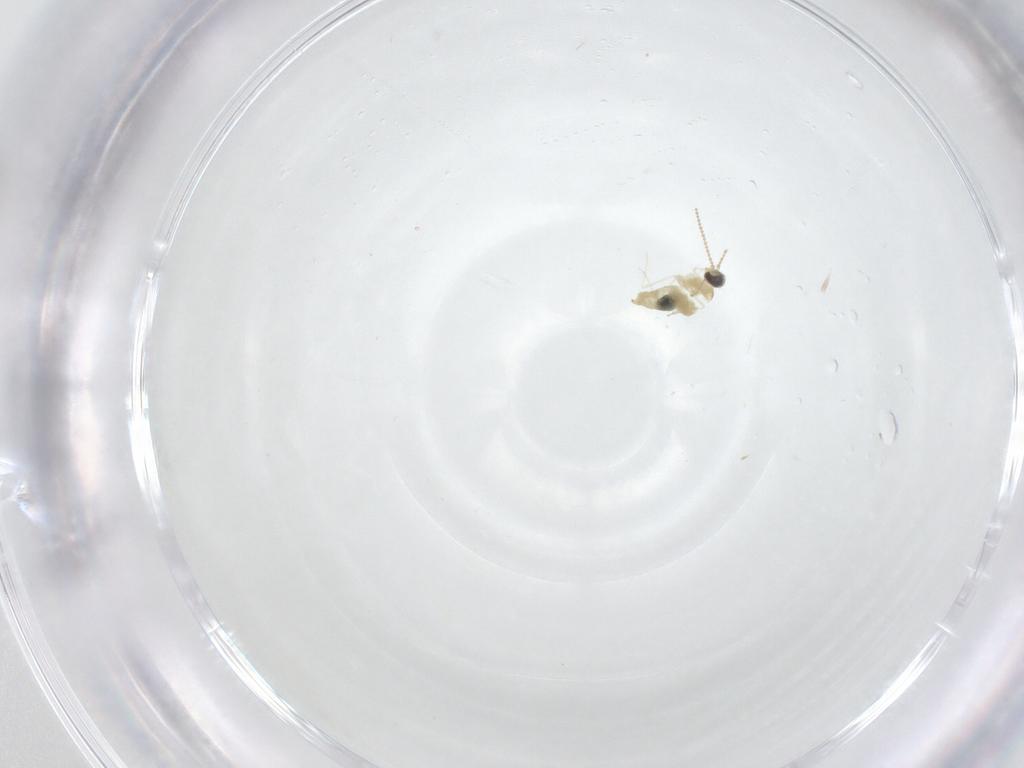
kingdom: Animalia
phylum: Arthropoda
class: Insecta
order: Diptera
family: Cecidomyiidae
